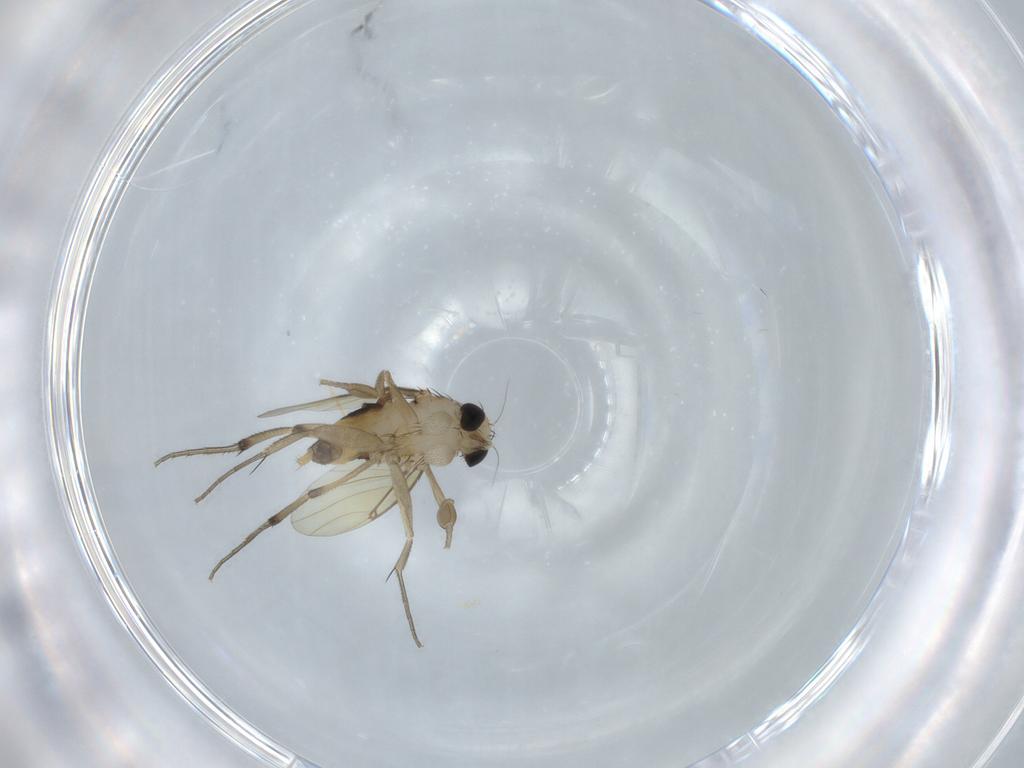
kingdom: Animalia
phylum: Arthropoda
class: Insecta
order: Diptera
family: Phoridae
